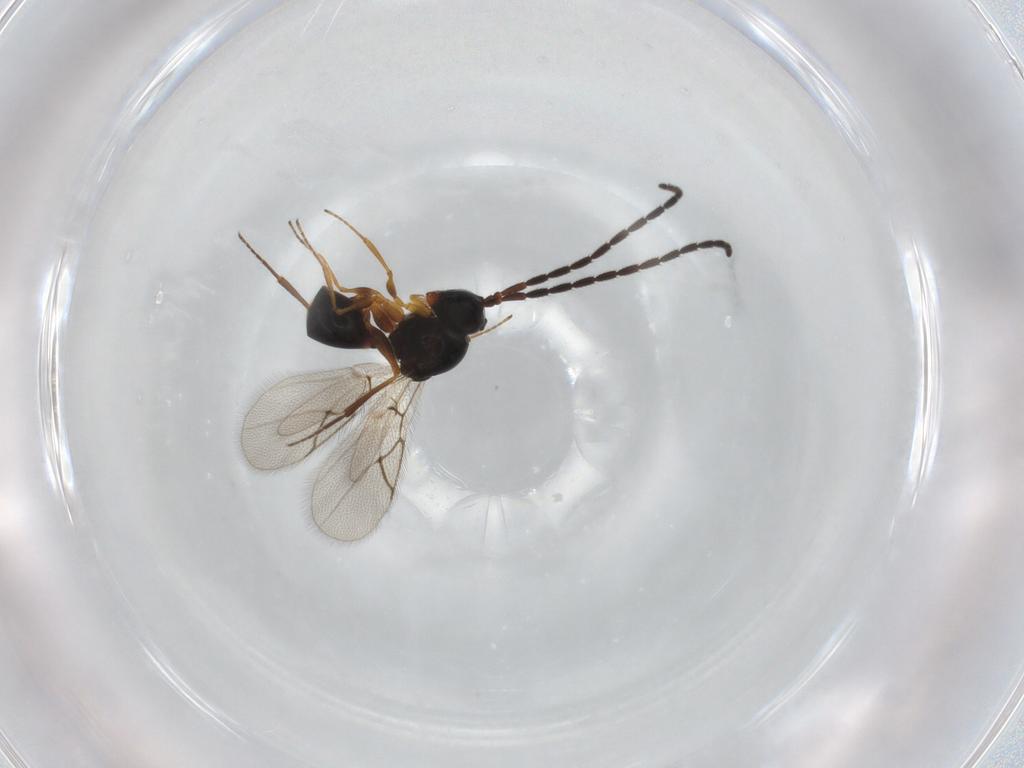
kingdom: Animalia
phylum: Arthropoda
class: Insecta
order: Hymenoptera
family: Figitidae
